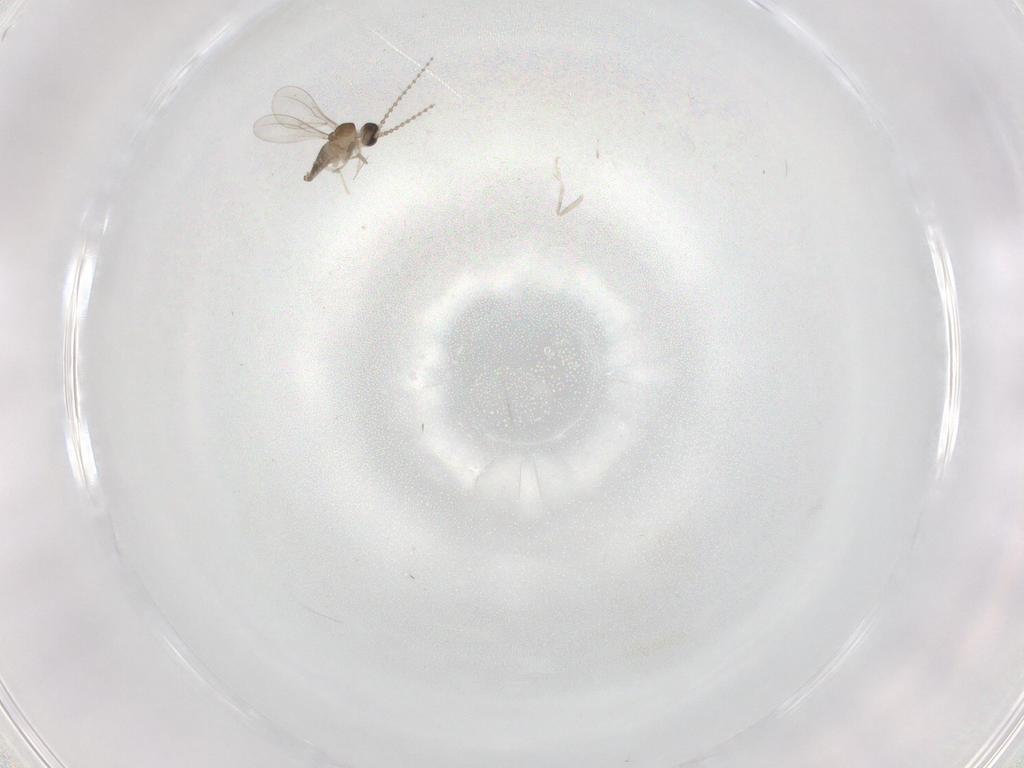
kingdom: Animalia
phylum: Arthropoda
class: Insecta
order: Diptera
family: Cecidomyiidae
